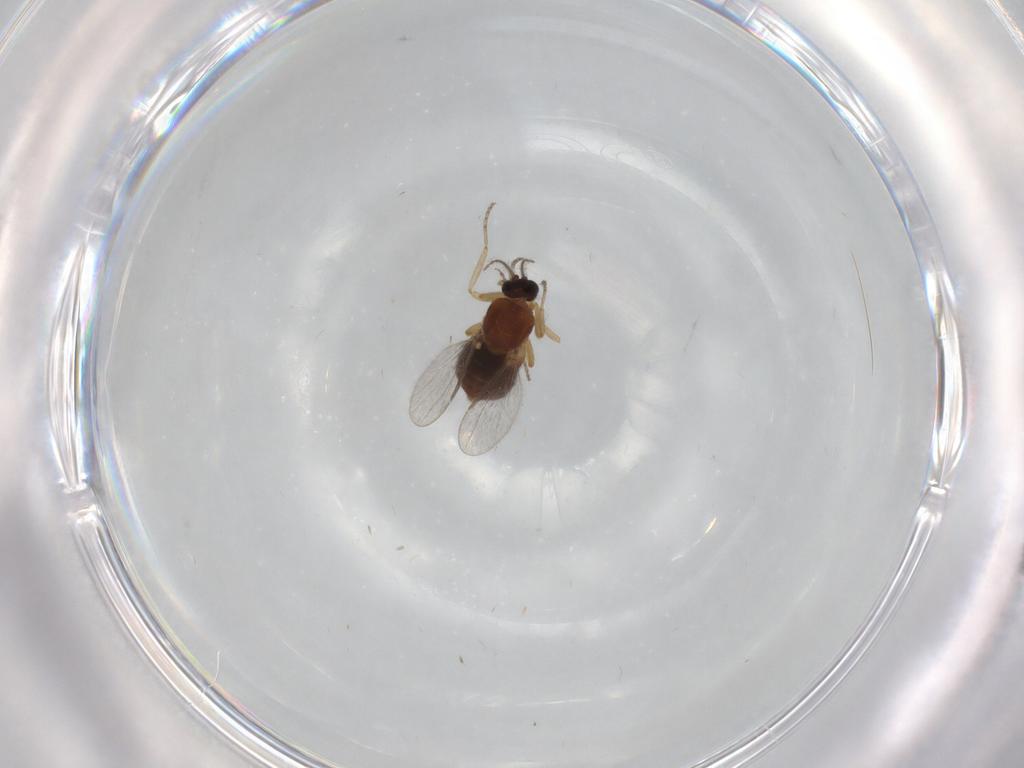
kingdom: Animalia
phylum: Arthropoda
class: Insecta
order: Diptera
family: Ceratopogonidae
